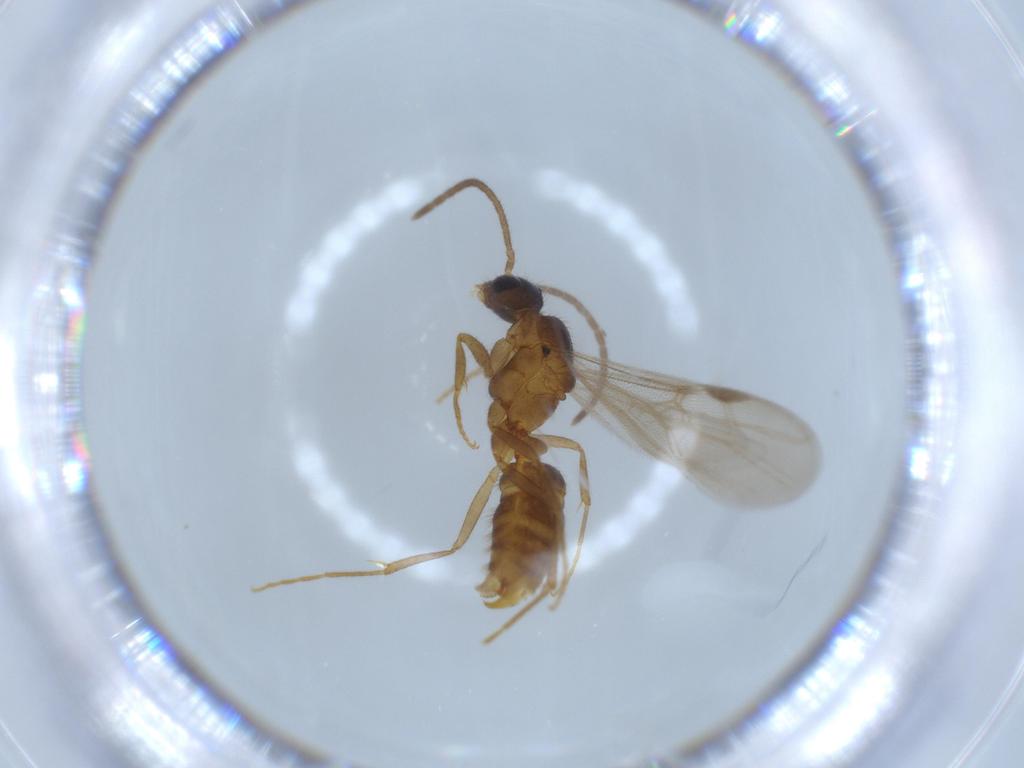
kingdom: Animalia
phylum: Arthropoda
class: Insecta
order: Hymenoptera
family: Formicidae
